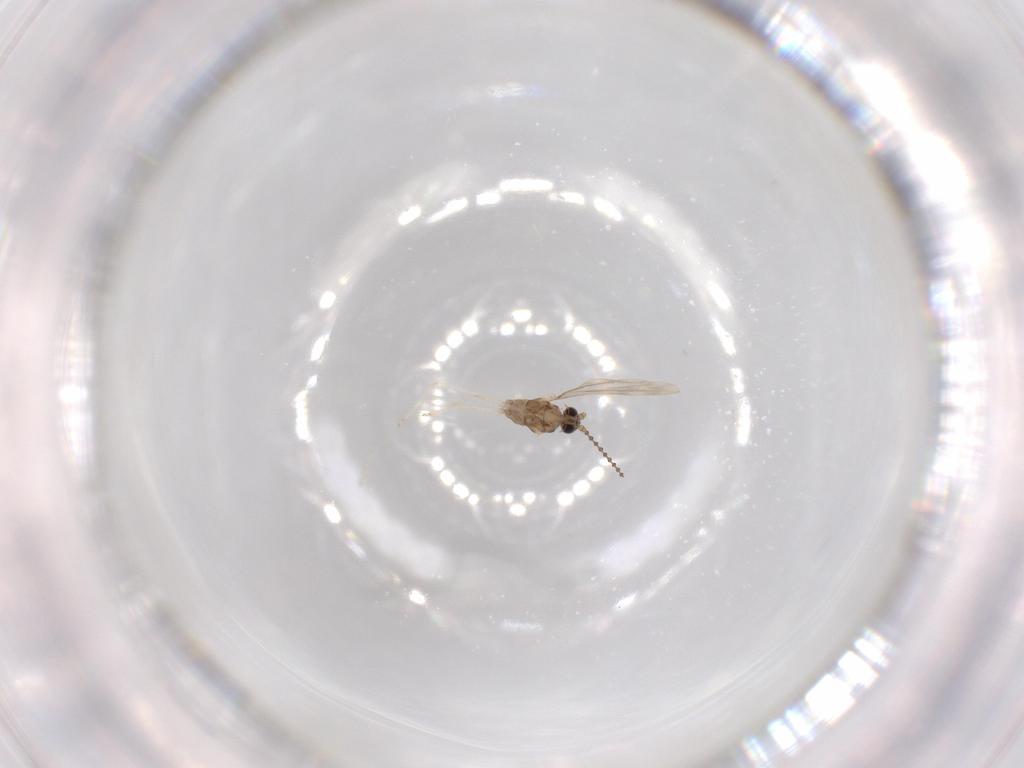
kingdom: Animalia
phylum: Arthropoda
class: Insecta
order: Diptera
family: Cecidomyiidae
